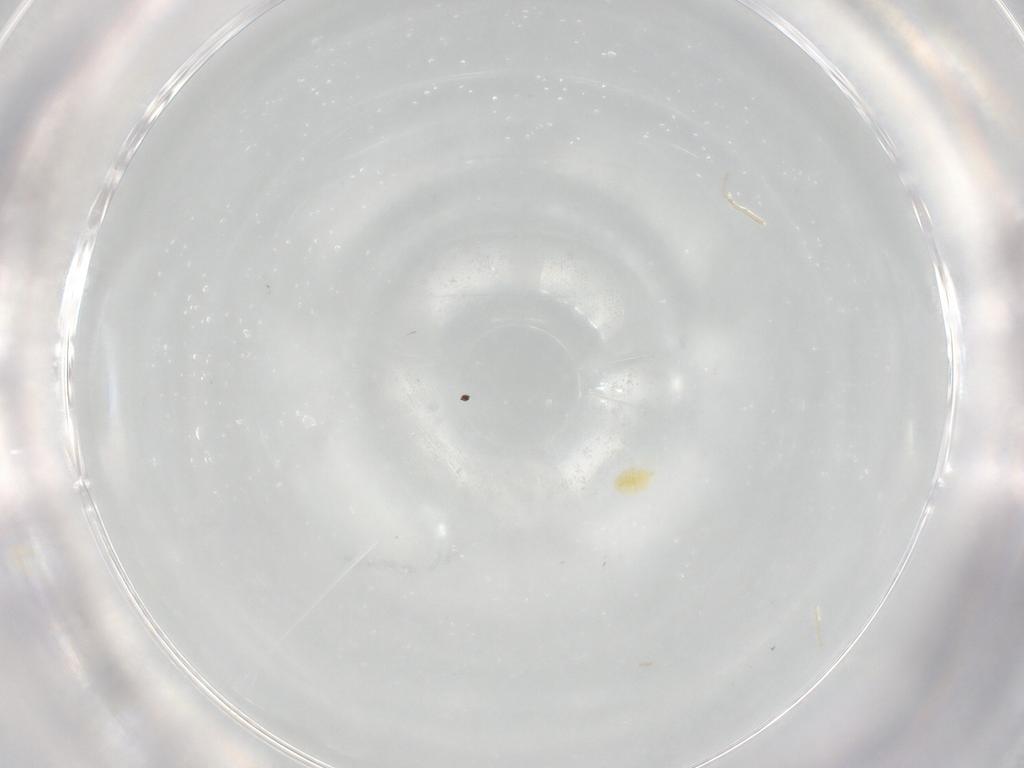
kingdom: Animalia
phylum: Arthropoda
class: Arachnida
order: Trombidiformes
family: Tetranychidae
